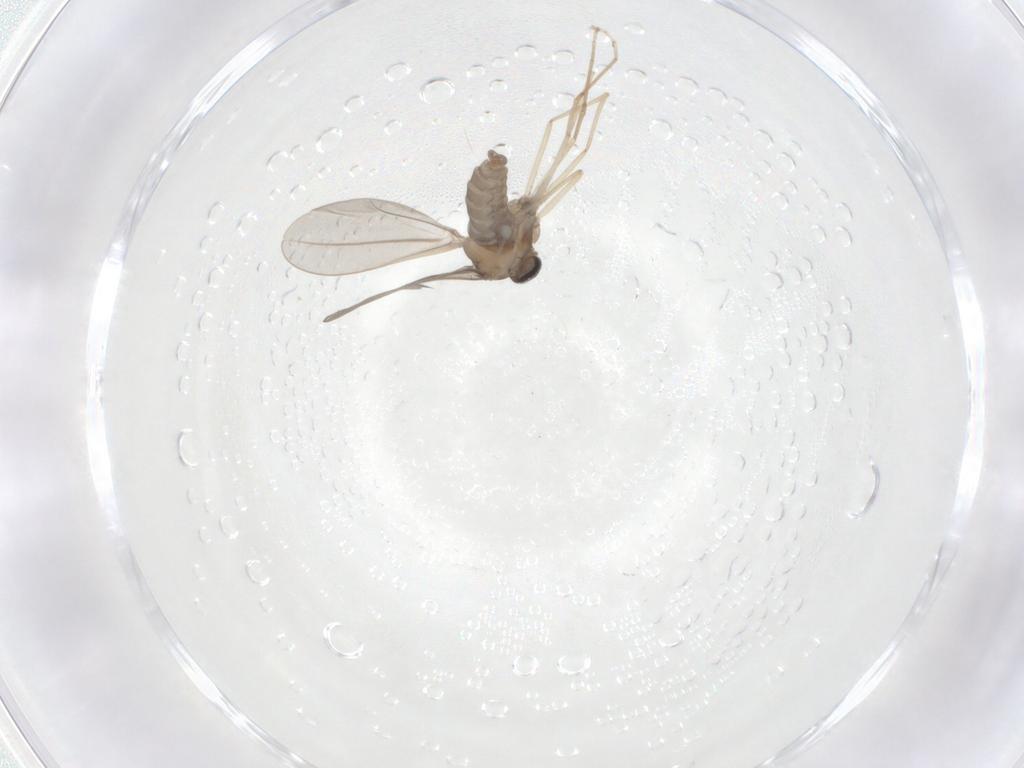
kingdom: Animalia
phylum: Arthropoda
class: Insecta
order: Diptera
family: Cecidomyiidae
